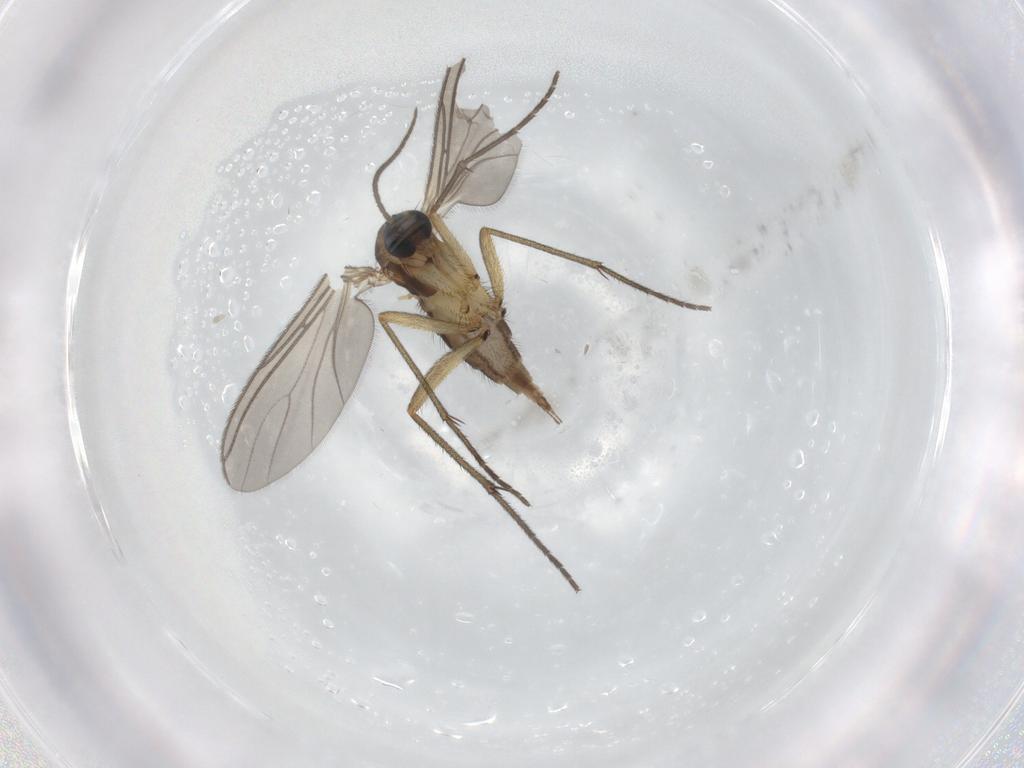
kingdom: Animalia
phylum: Arthropoda
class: Insecta
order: Diptera
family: Sciaridae
